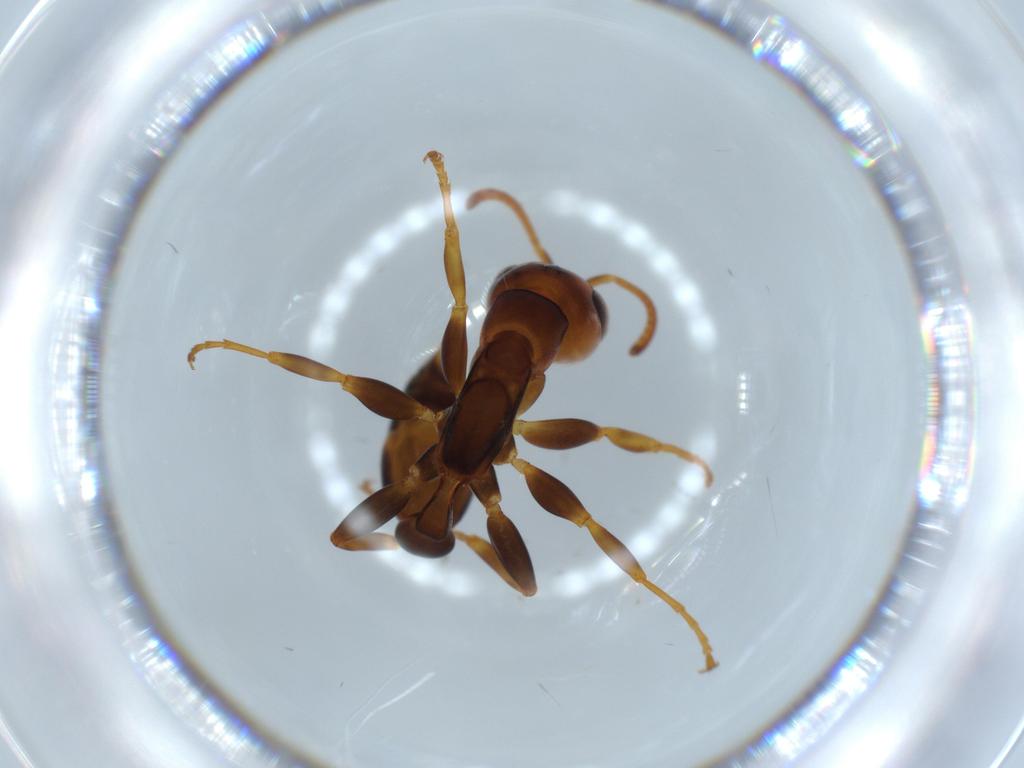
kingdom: Animalia
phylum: Arthropoda
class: Insecta
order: Hymenoptera
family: Formicidae
